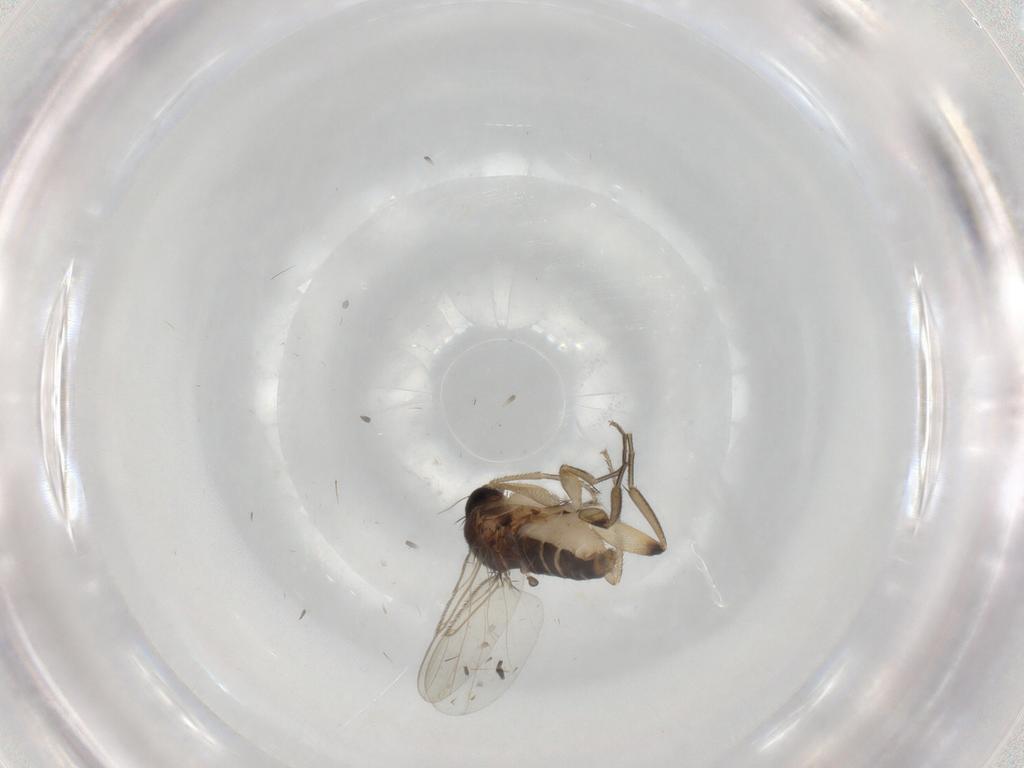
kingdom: Animalia
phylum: Arthropoda
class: Insecta
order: Diptera
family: Phoridae
